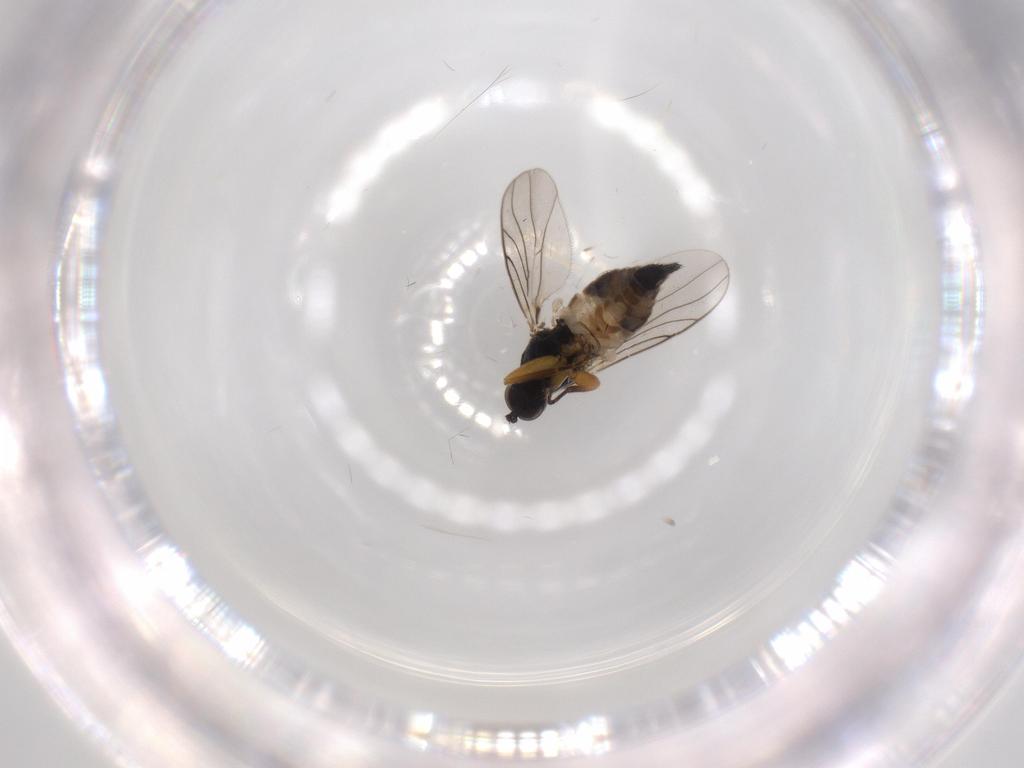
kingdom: Animalia
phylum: Arthropoda
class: Insecta
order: Diptera
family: Hybotidae
